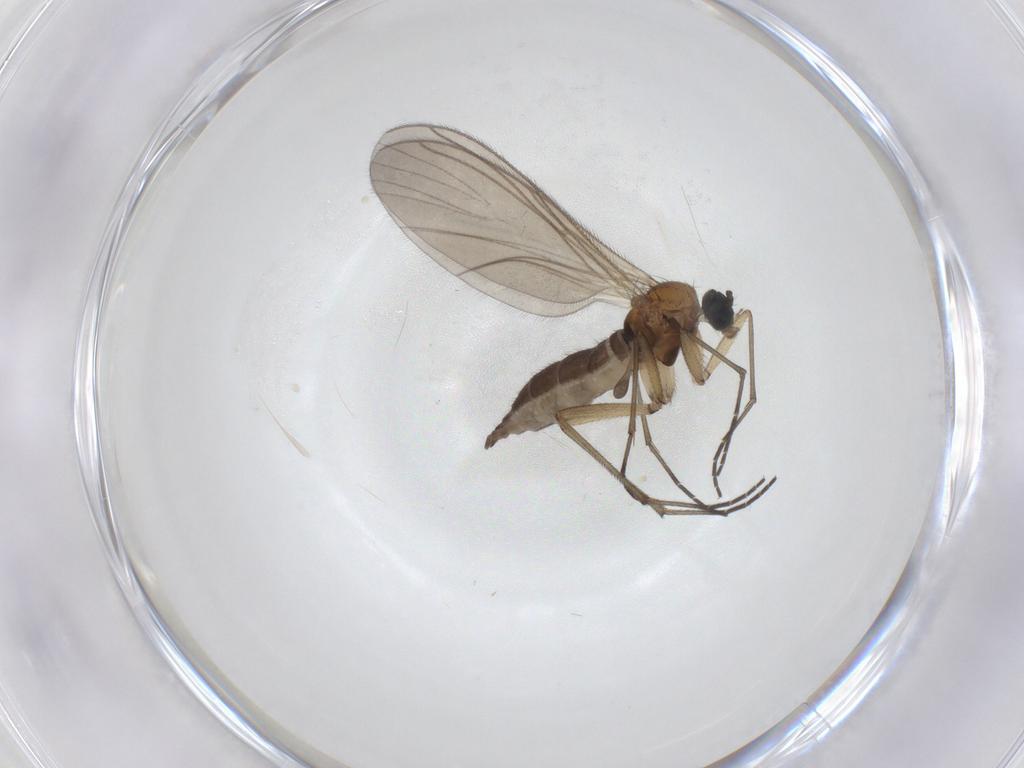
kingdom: Animalia
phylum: Arthropoda
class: Insecta
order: Diptera
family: Sciaridae
